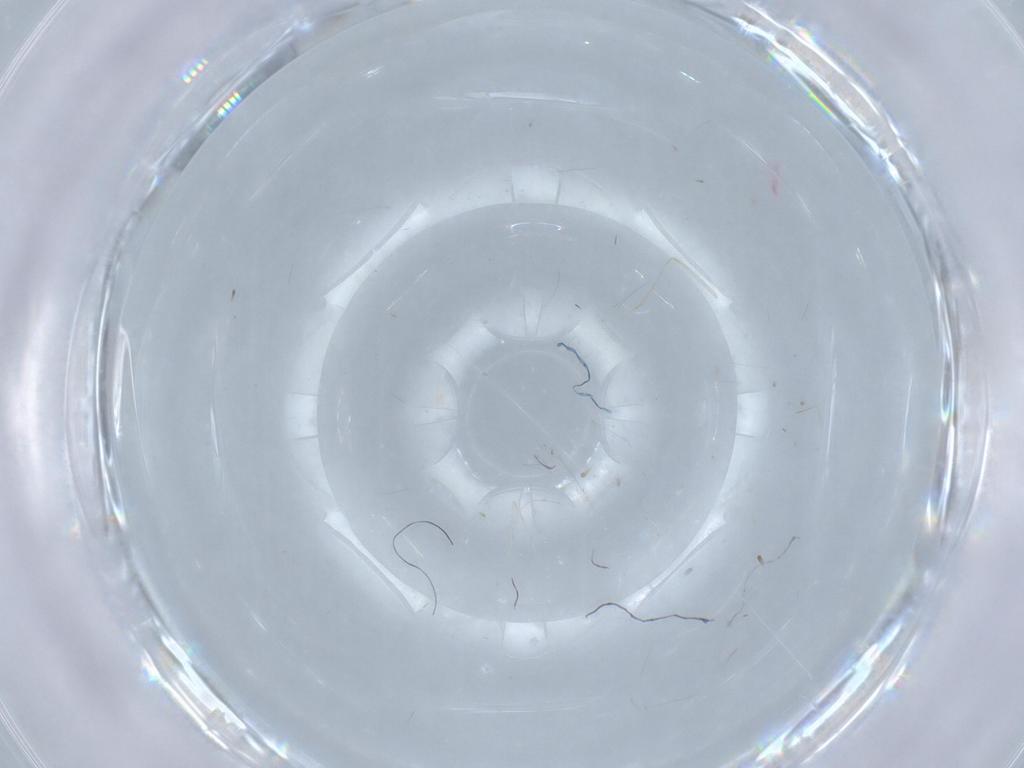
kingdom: Animalia
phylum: Arthropoda
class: Insecta
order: Diptera
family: Cecidomyiidae
